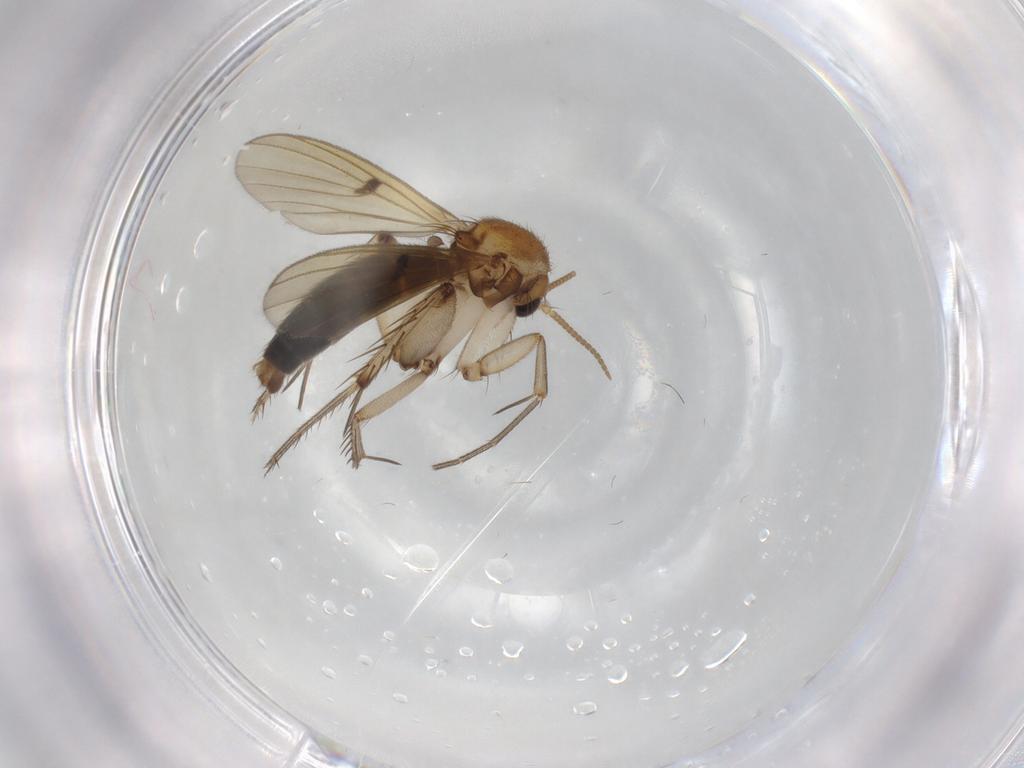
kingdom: Animalia
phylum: Arthropoda
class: Insecta
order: Diptera
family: Mycetophilidae
